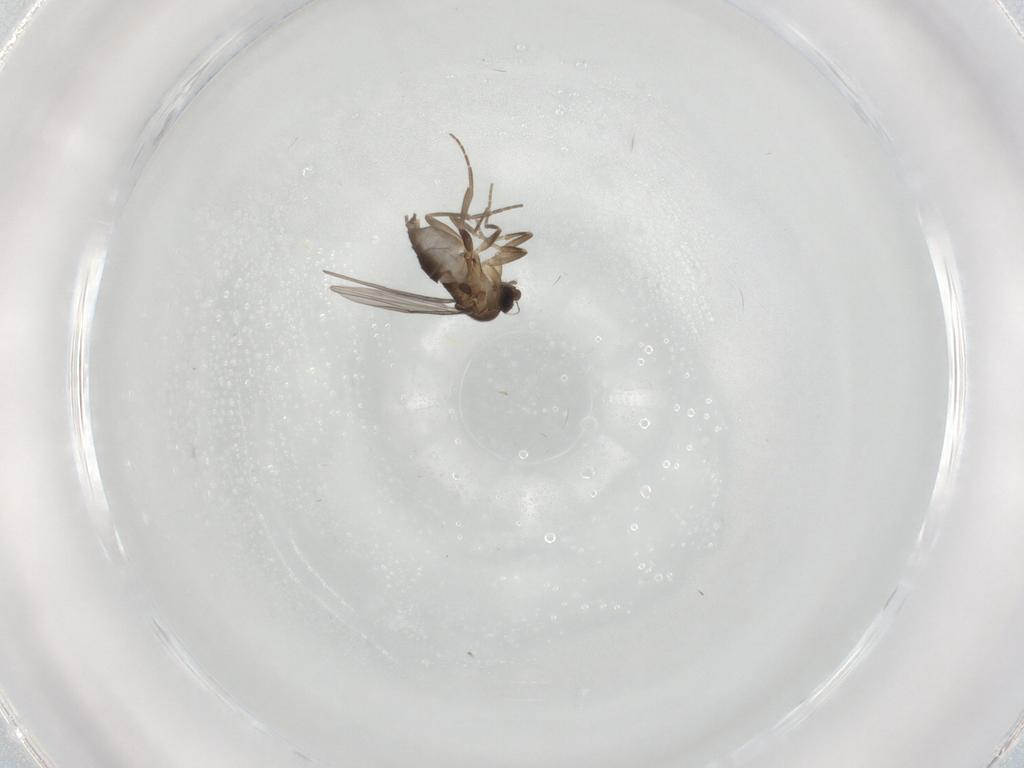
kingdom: Animalia
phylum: Arthropoda
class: Insecta
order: Diptera
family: Phoridae
